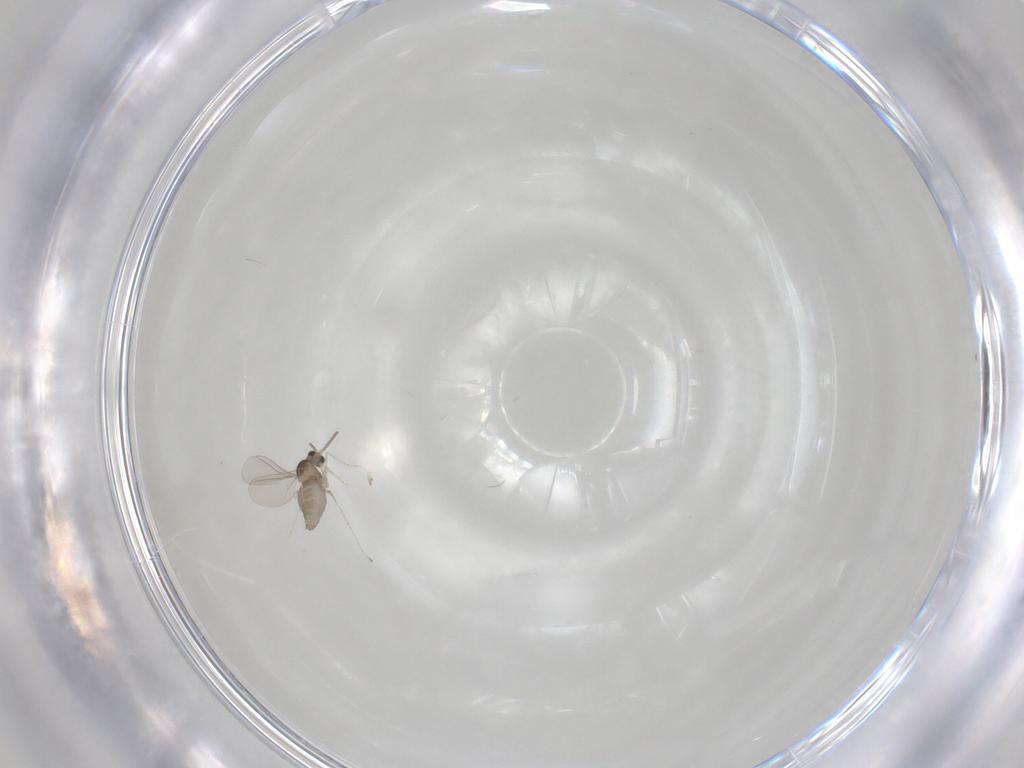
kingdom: Animalia
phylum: Arthropoda
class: Insecta
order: Diptera
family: Cecidomyiidae
